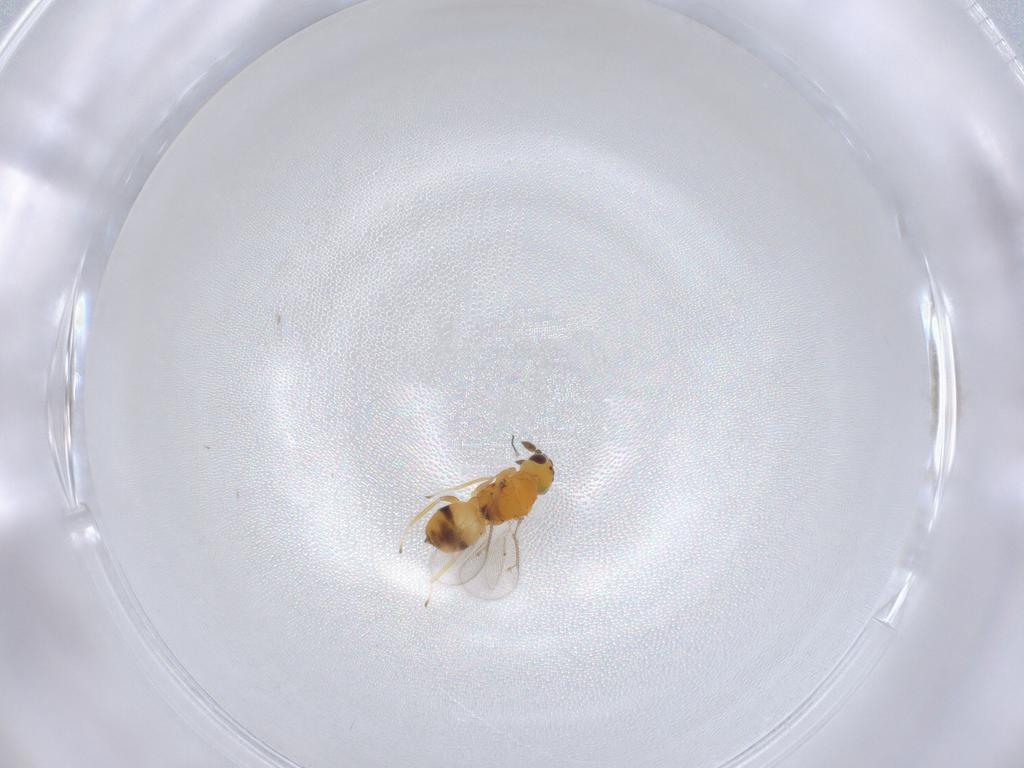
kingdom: Animalia
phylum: Arthropoda
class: Insecta
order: Hymenoptera
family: Eulophidae
